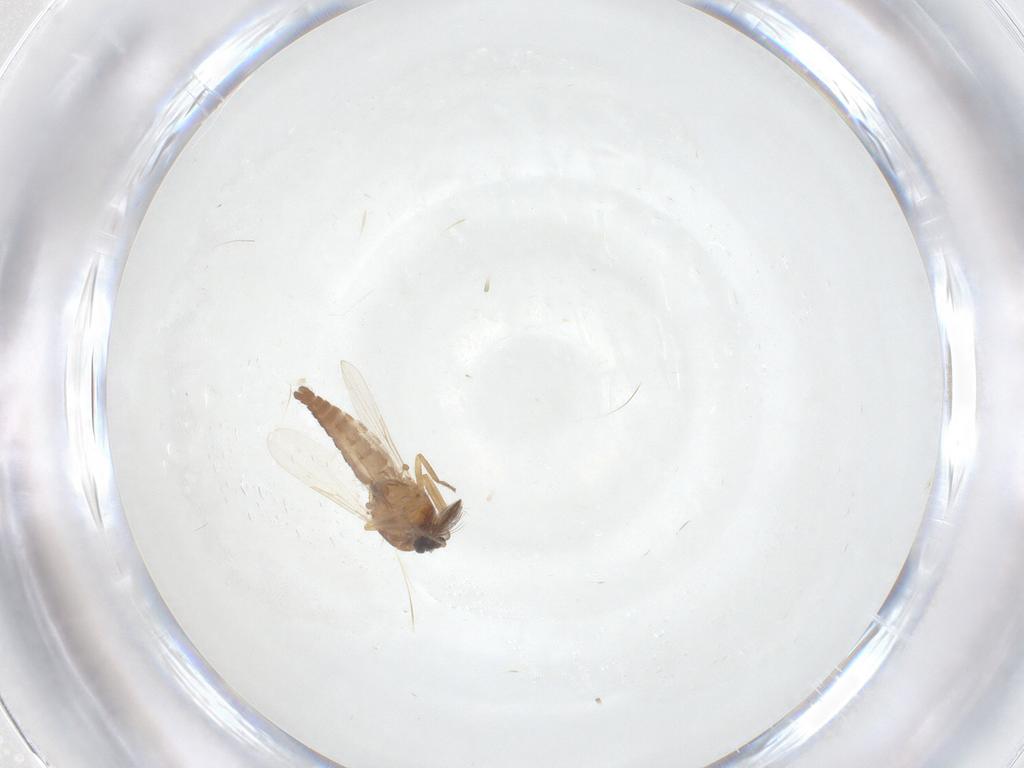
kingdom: Animalia
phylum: Arthropoda
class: Insecta
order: Diptera
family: Ceratopogonidae
